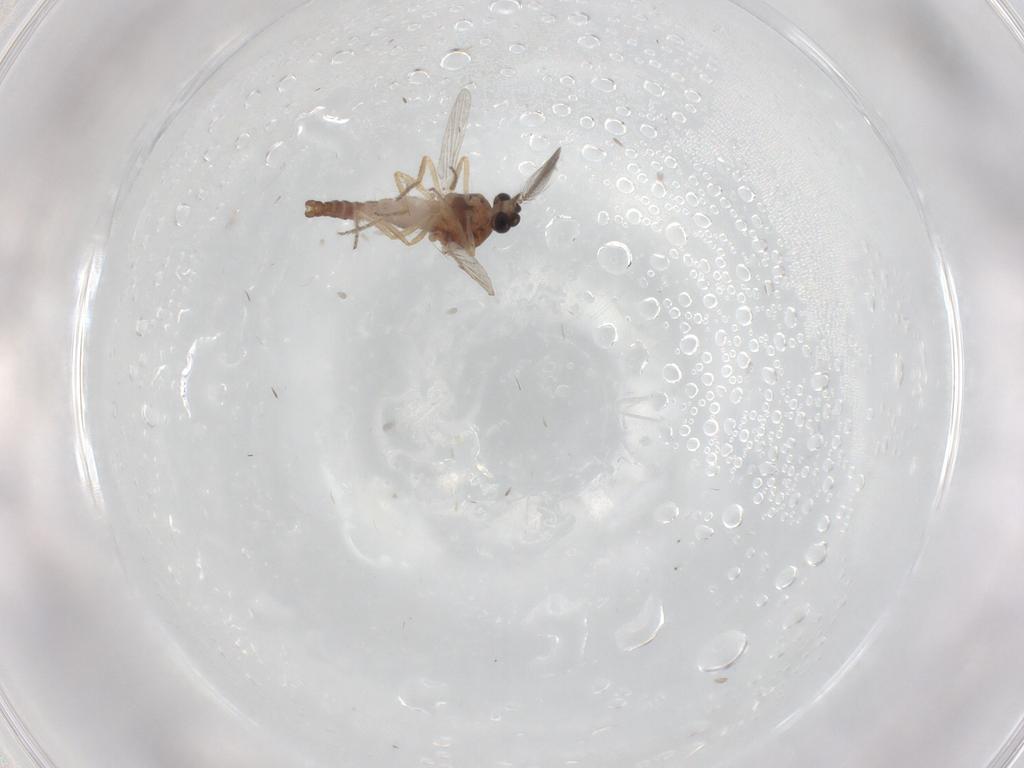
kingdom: Animalia
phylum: Arthropoda
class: Insecta
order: Diptera
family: Ceratopogonidae
